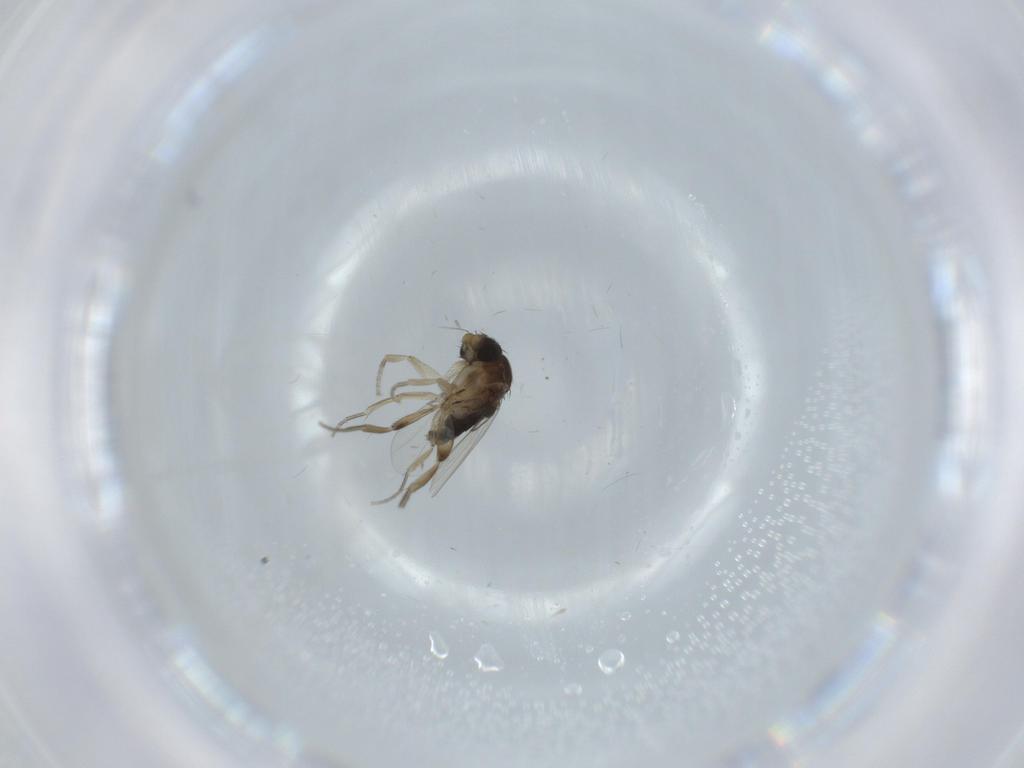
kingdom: Animalia
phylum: Arthropoda
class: Insecta
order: Diptera
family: Phoridae
